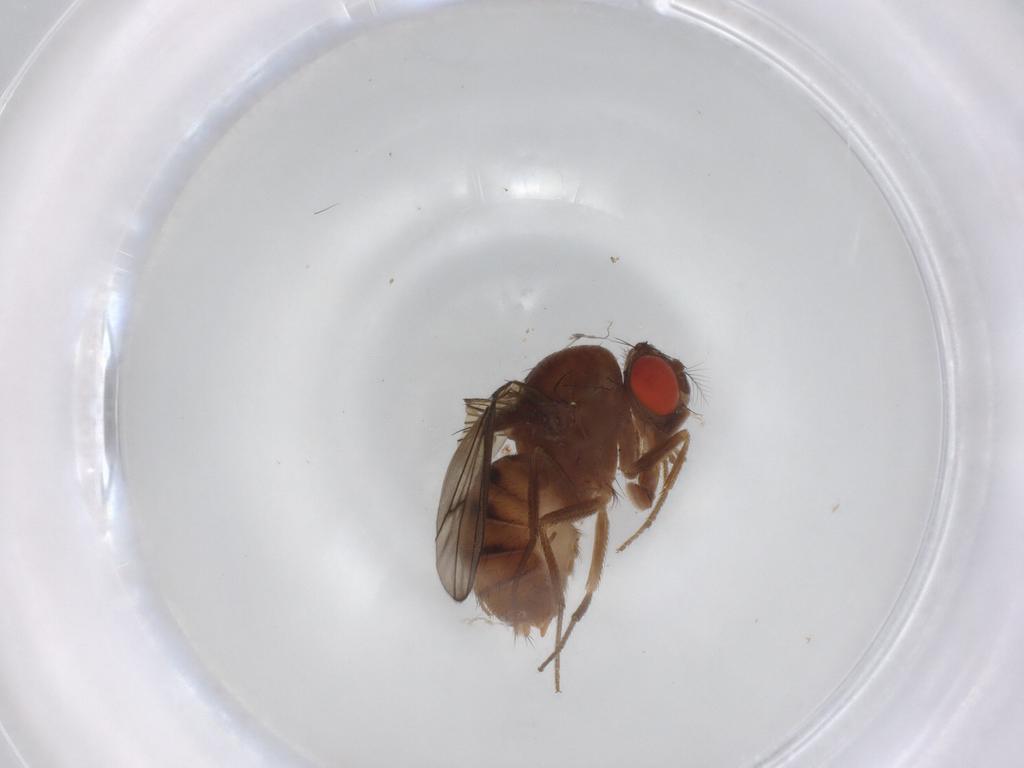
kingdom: Animalia
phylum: Arthropoda
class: Insecta
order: Diptera
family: Drosophilidae
